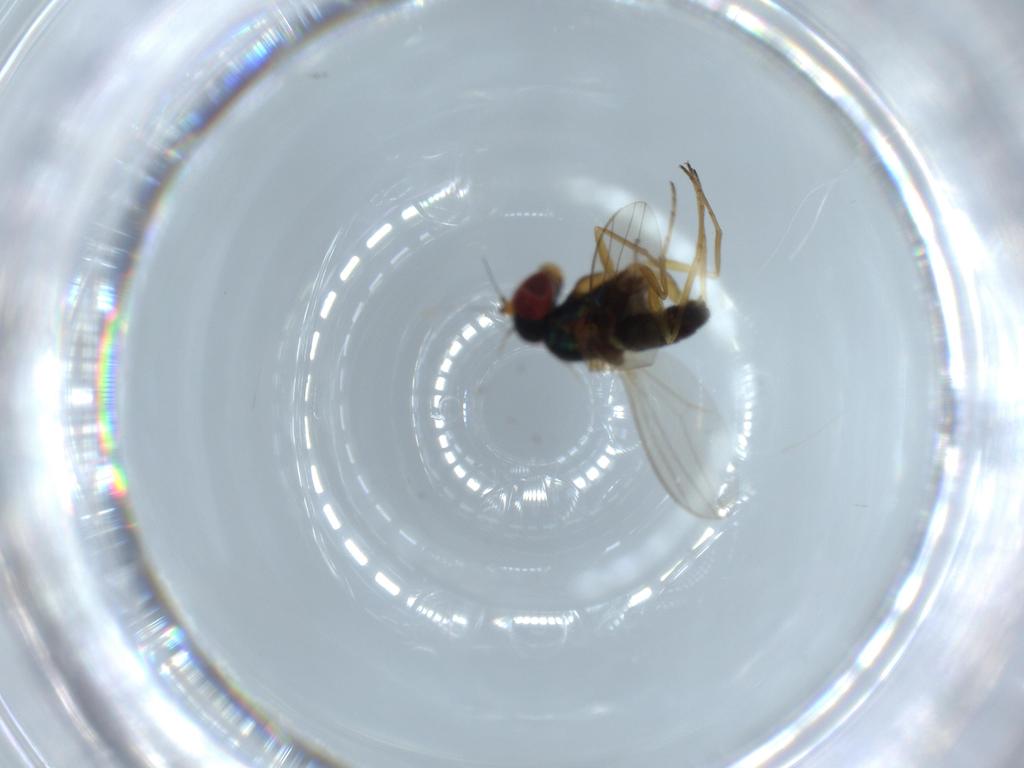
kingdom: Animalia
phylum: Arthropoda
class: Insecta
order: Diptera
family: Dolichopodidae
